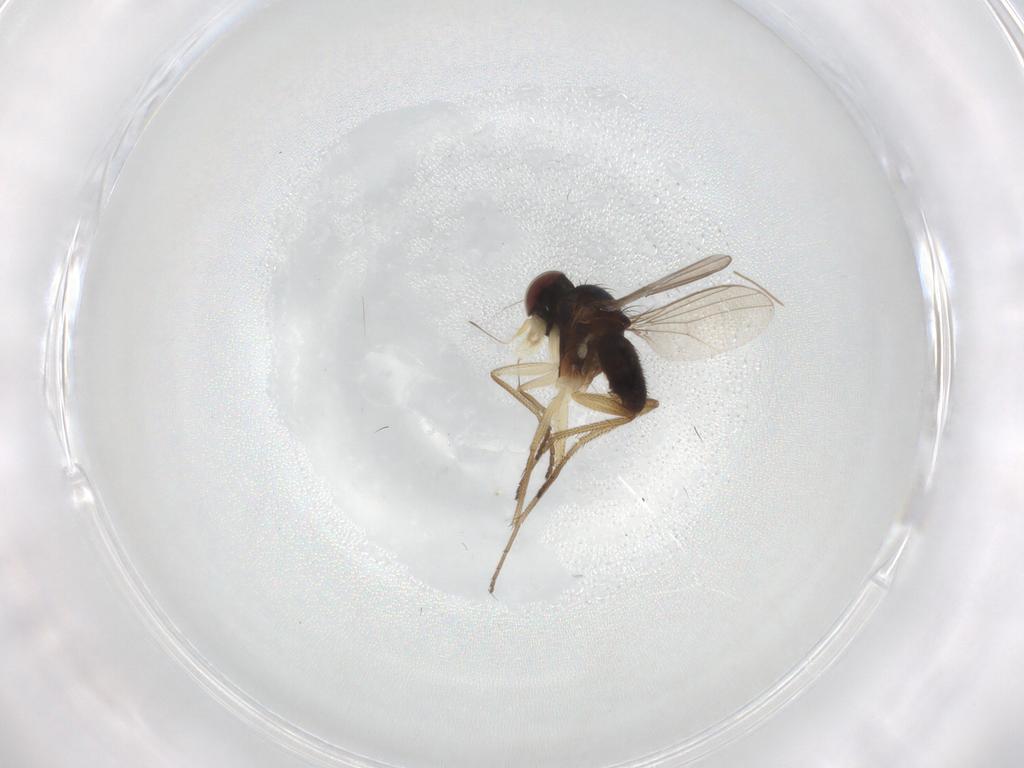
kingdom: Animalia
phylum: Arthropoda
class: Insecta
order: Diptera
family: Dolichopodidae
